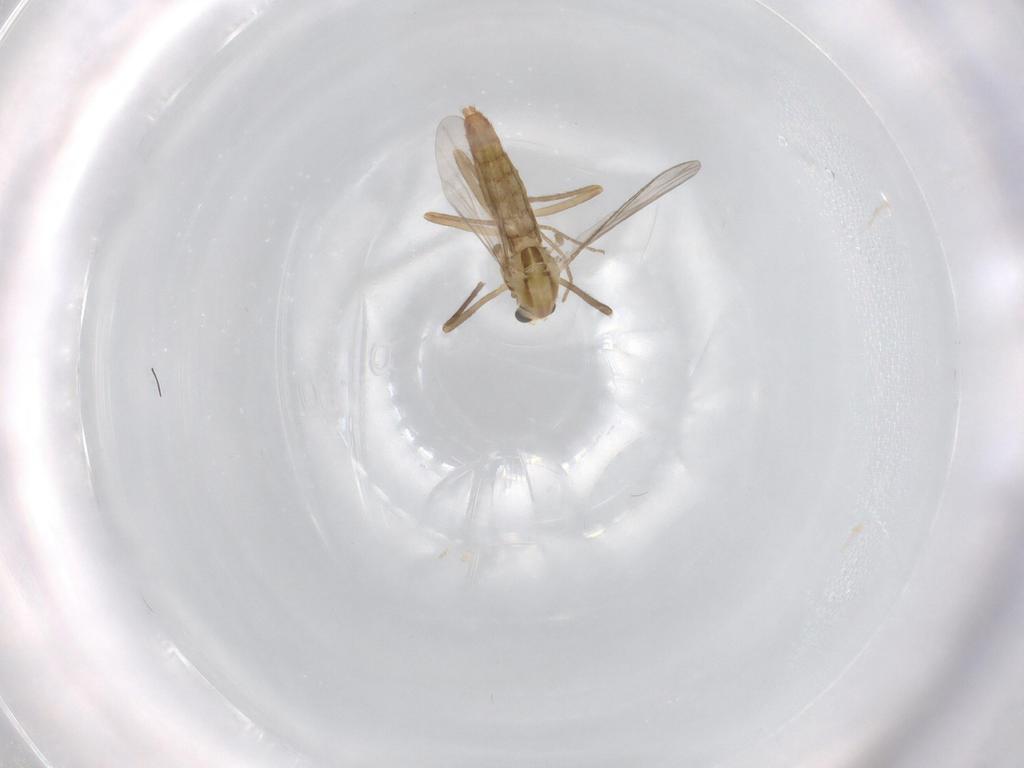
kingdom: Animalia
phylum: Arthropoda
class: Insecta
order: Diptera
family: Chironomidae
